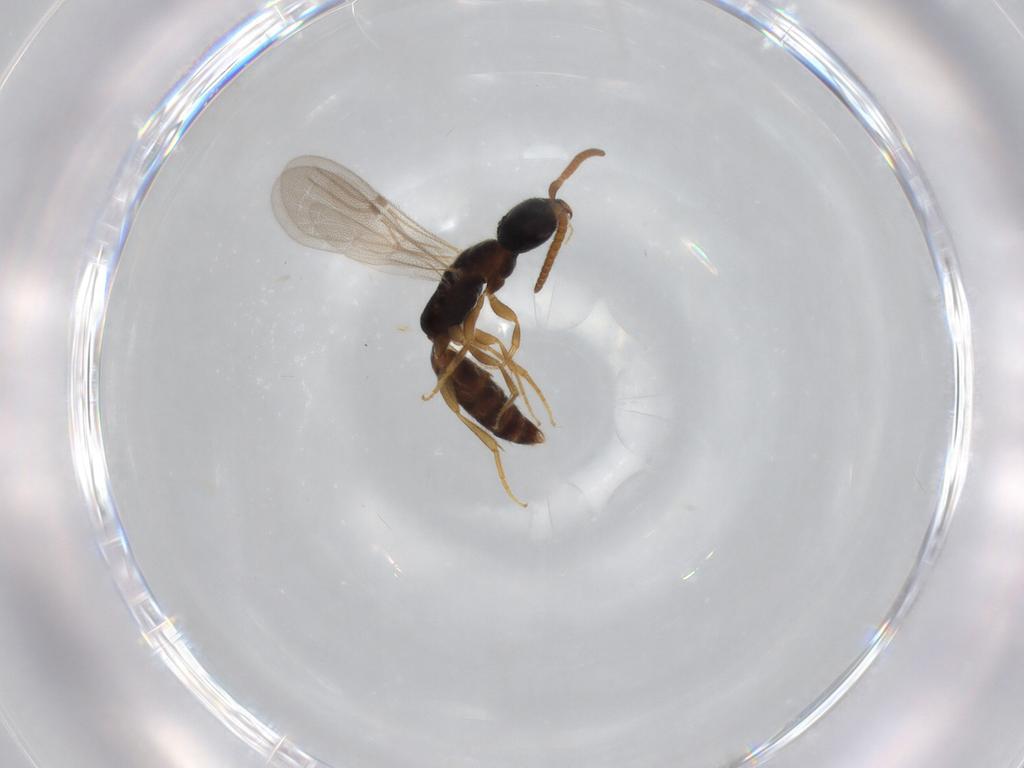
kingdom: Animalia
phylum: Arthropoda
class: Insecta
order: Hymenoptera
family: Bethylidae
